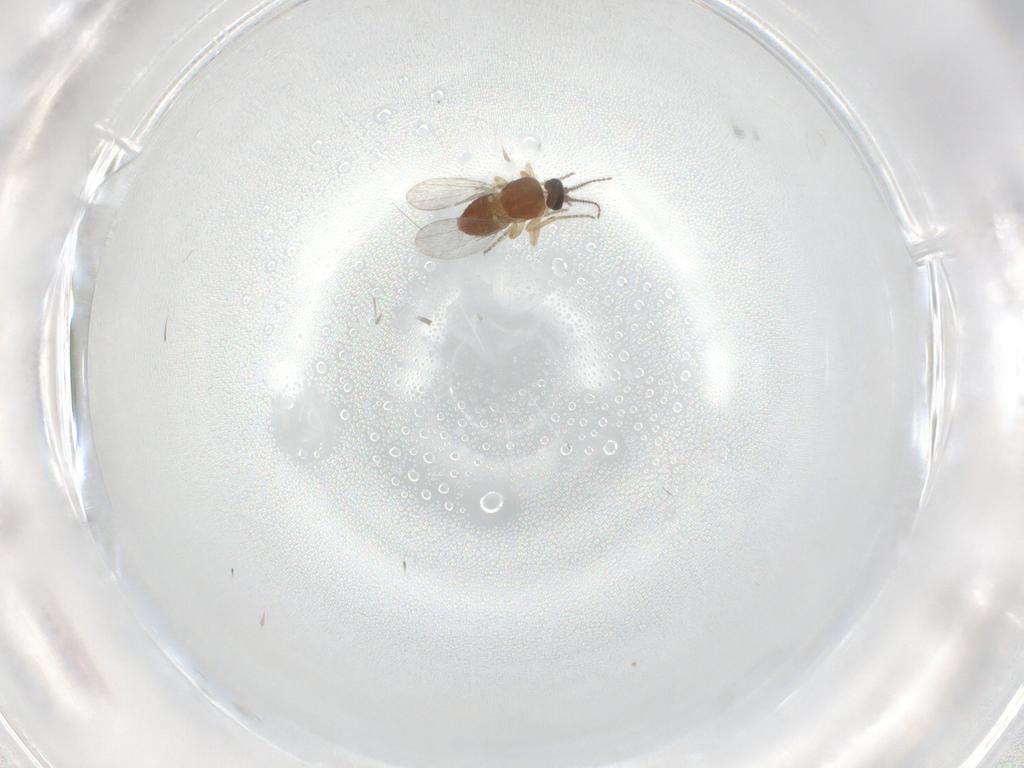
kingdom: Animalia
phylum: Arthropoda
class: Insecta
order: Diptera
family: Ceratopogonidae
